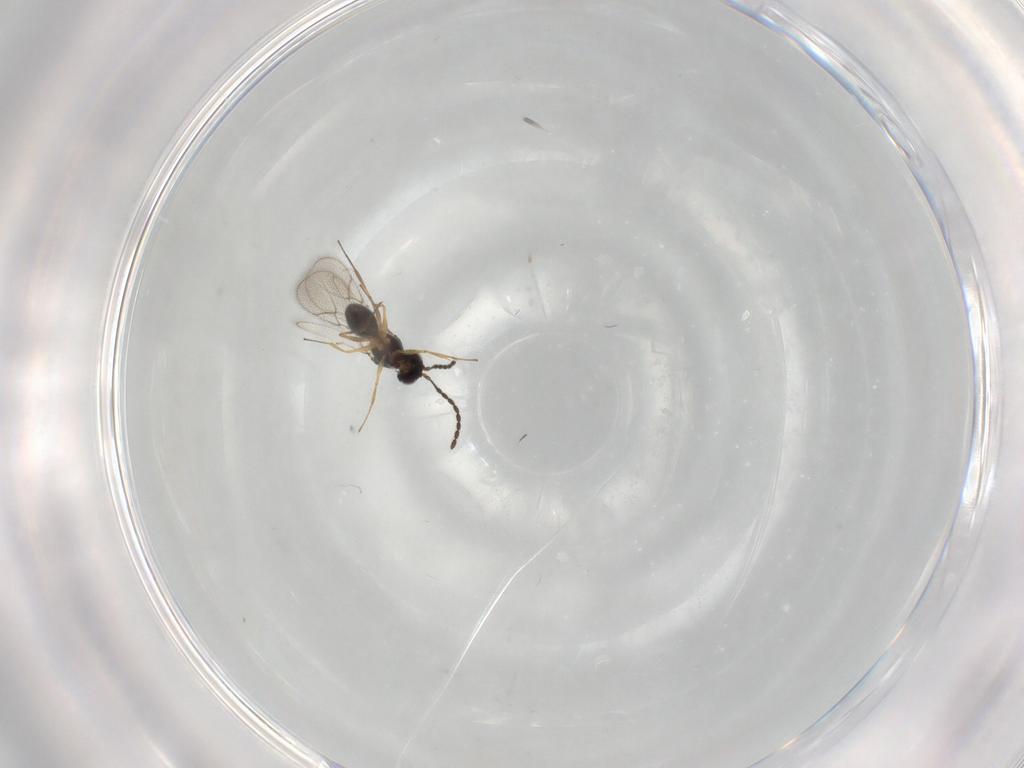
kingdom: Animalia
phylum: Arthropoda
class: Insecta
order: Hymenoptera
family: Figitidae
